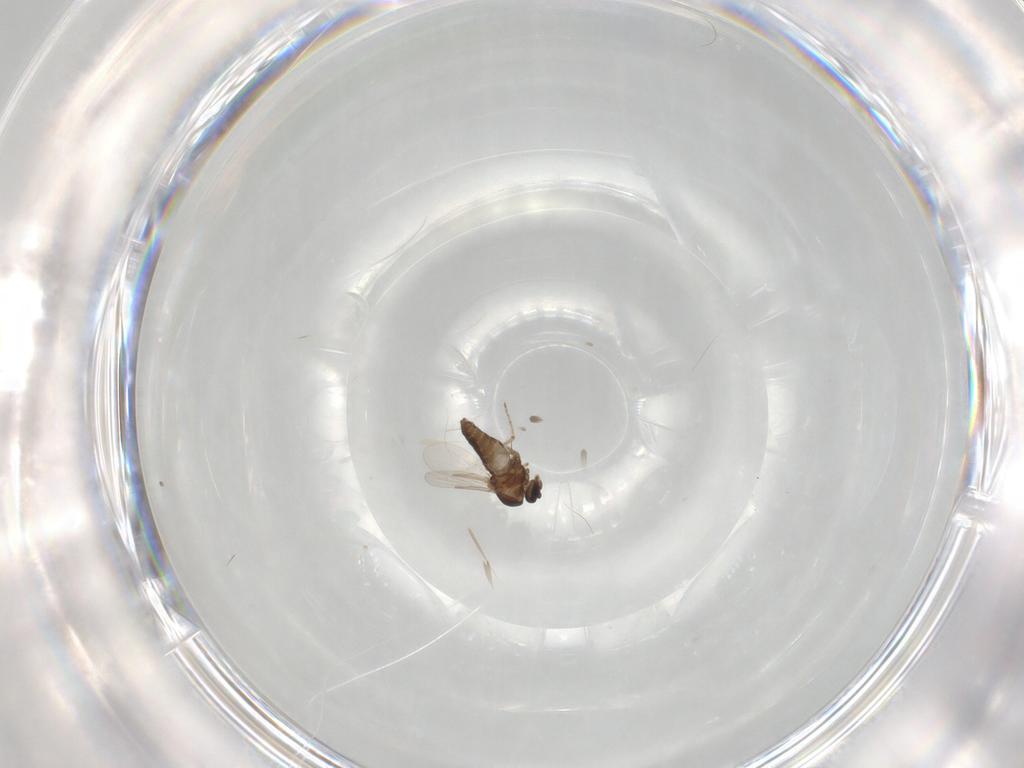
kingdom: Animalia
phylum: Arthropoda
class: Insecta
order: Diptera
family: Ceratopogonidae
